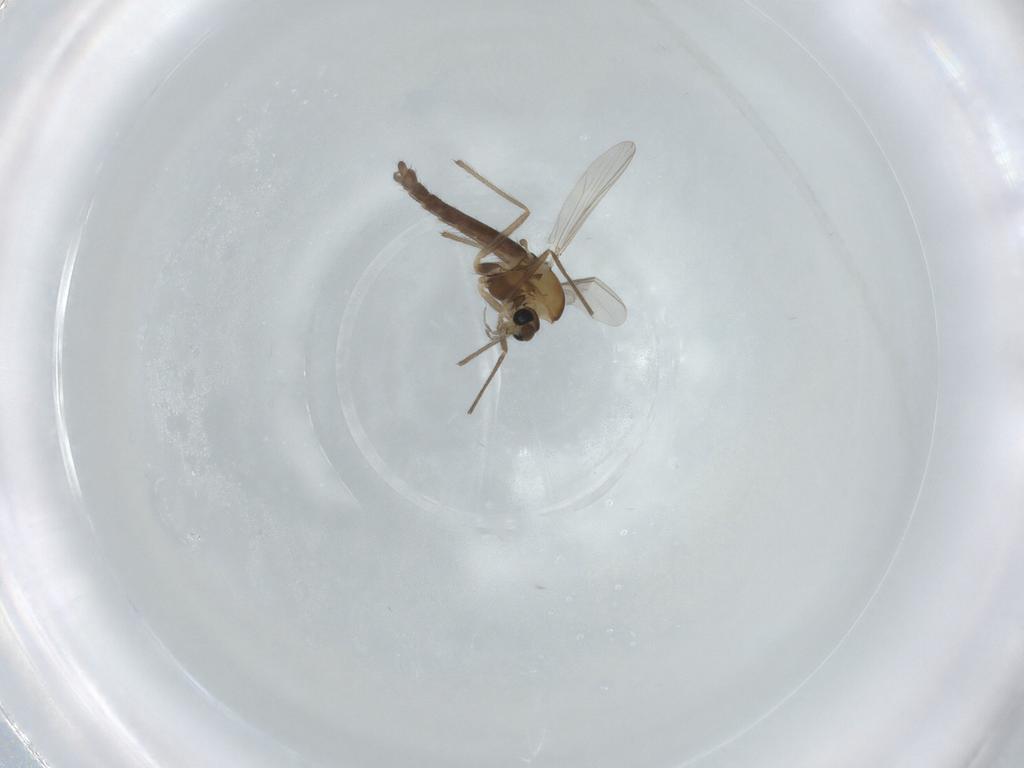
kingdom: Animalia
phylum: Arthropoda
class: Insecta
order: Diptera
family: Chironomidae
